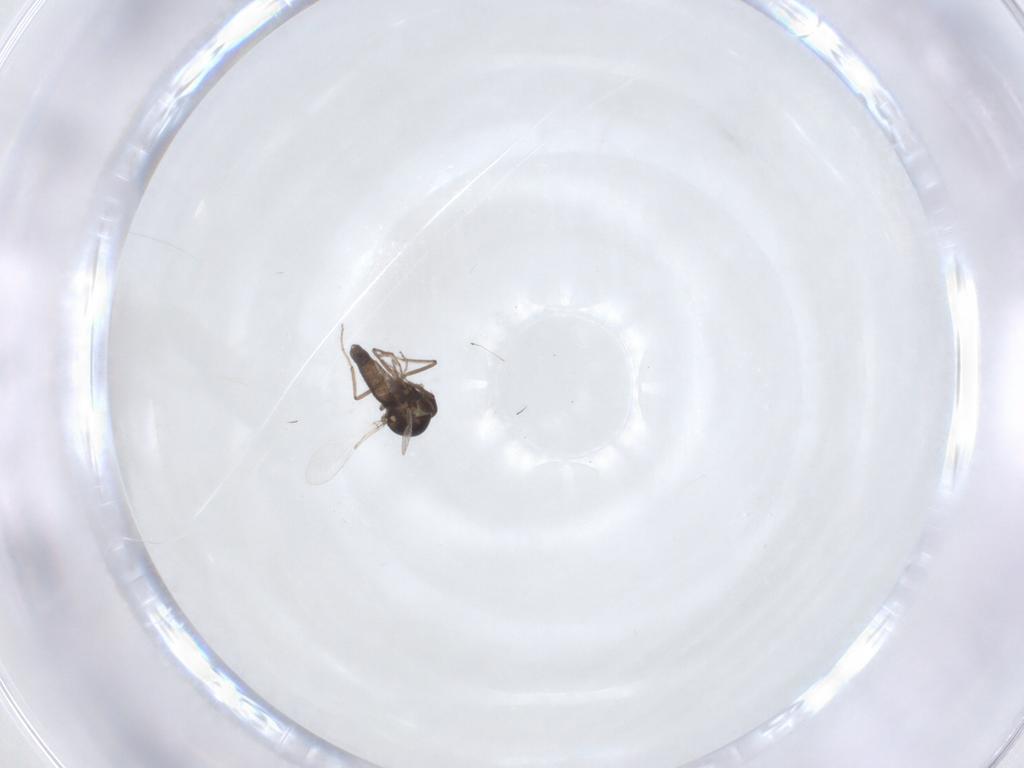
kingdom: Animalia
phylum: Arthropoda
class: Insecta
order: Diptera
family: Ceratopogonidae
